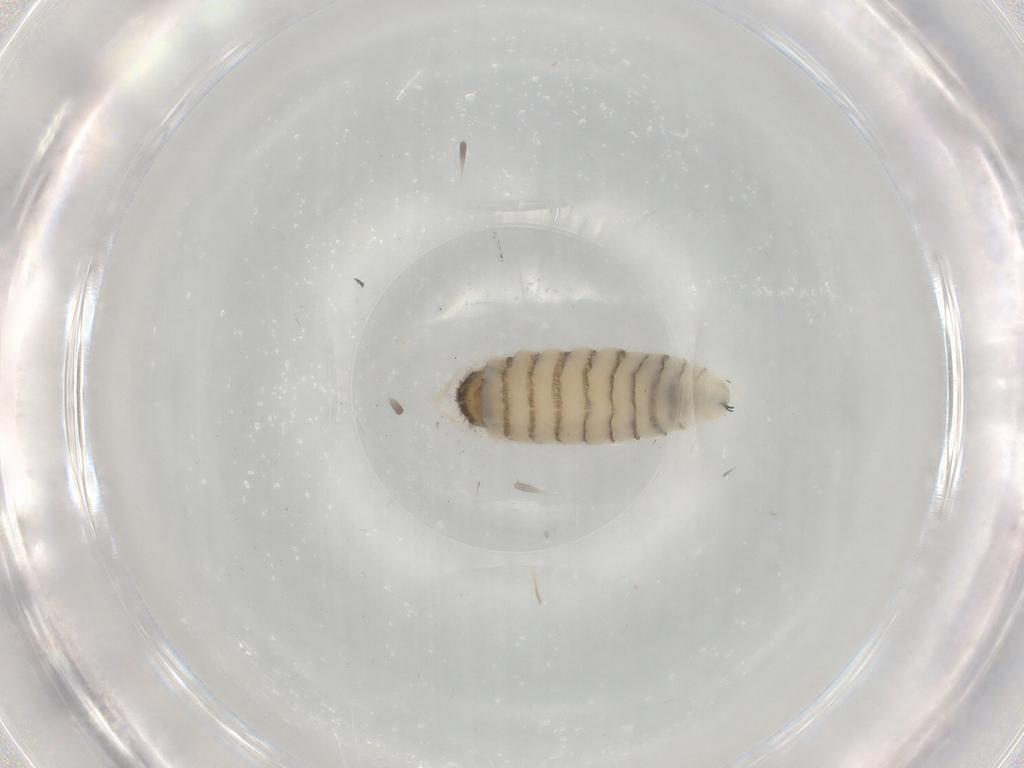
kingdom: Animalia
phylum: Arthropoda
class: Insecta
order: Diptera
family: Sarcophagidae
